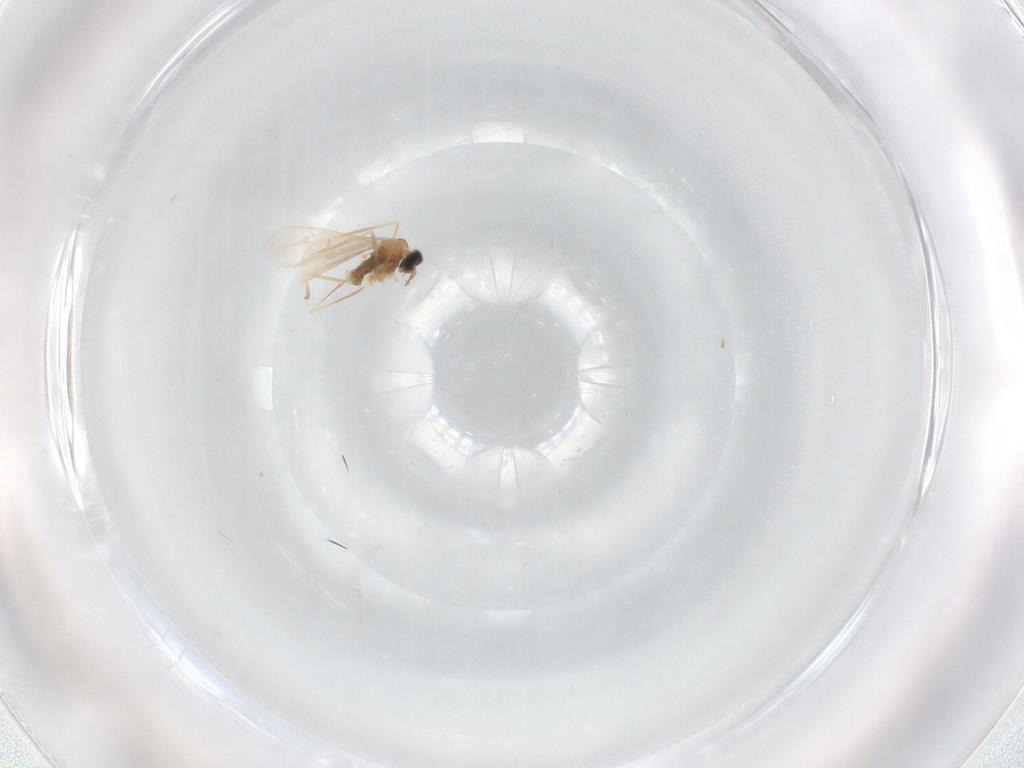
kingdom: Animalia
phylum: Arthropoda
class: Insecta
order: Diptera
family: Cecidomyiidae
